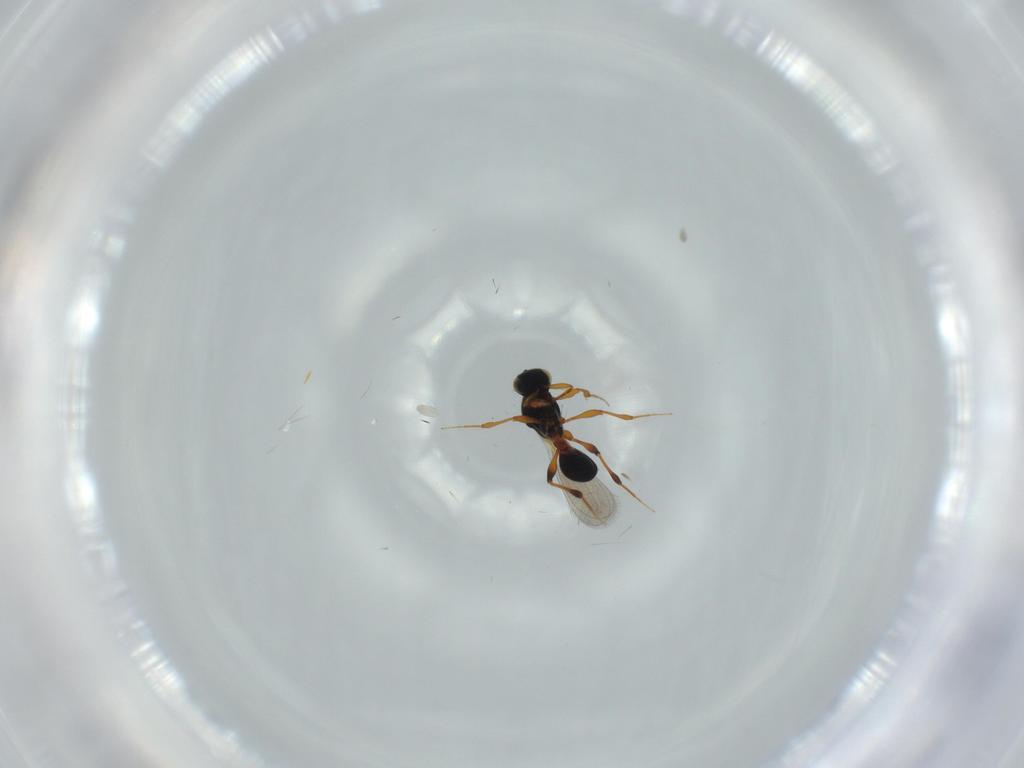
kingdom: Animalia
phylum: Arthropoda
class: Insecta
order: Hymenoptera
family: Platygastridae
